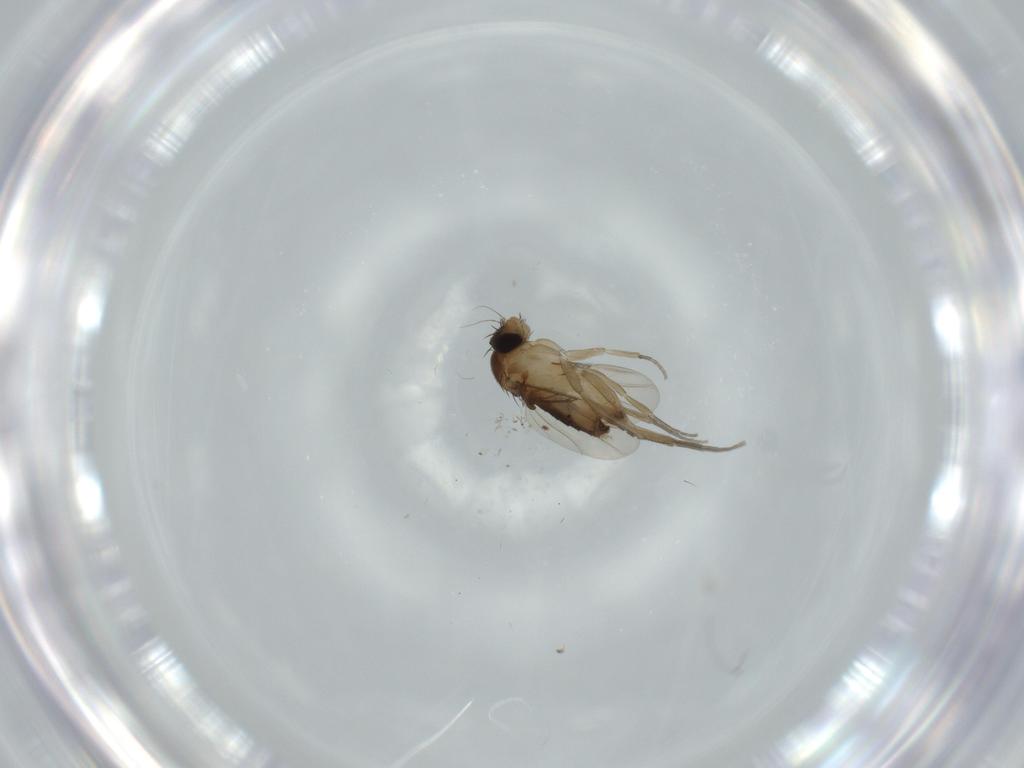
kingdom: Animalia
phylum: Arthropoda
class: Insecta
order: Diptera
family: Phoridae
